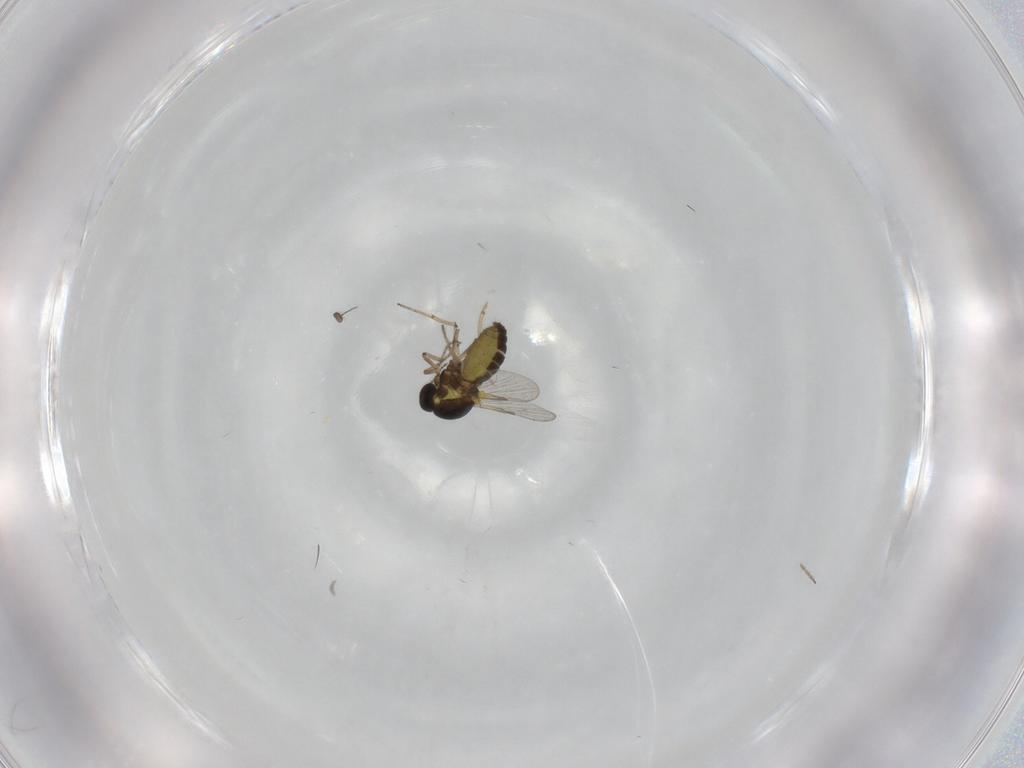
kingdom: Animalia
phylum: Arthropoda
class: Insecta
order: Diptera
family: Ceratopogonidae
